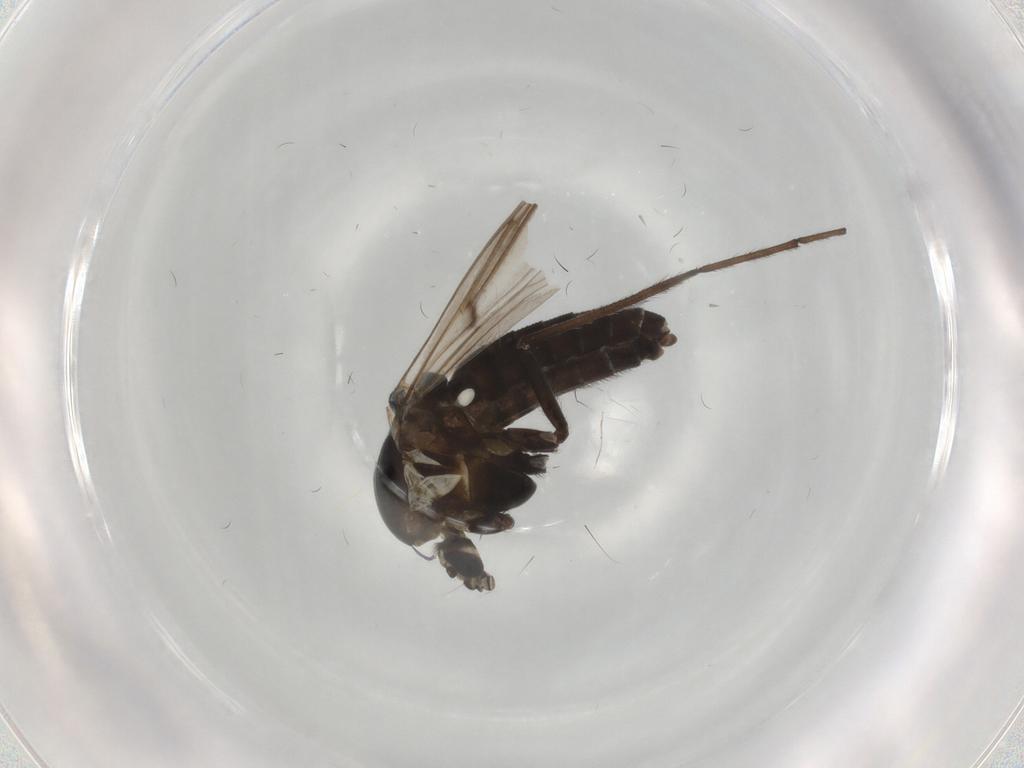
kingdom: Animalia
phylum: Arthropoda
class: Insecta
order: Diptera
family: Chironomidae
